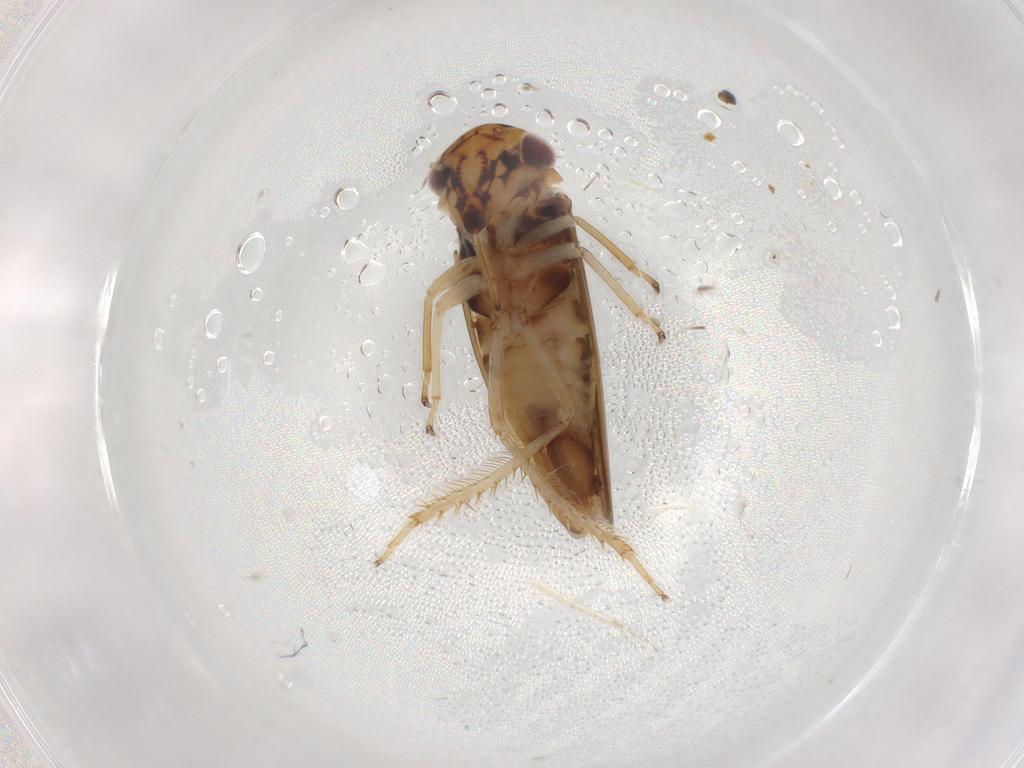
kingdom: Animalia
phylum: Arthropoda
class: Insecta
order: Hemiptera
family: Cicadellidae
